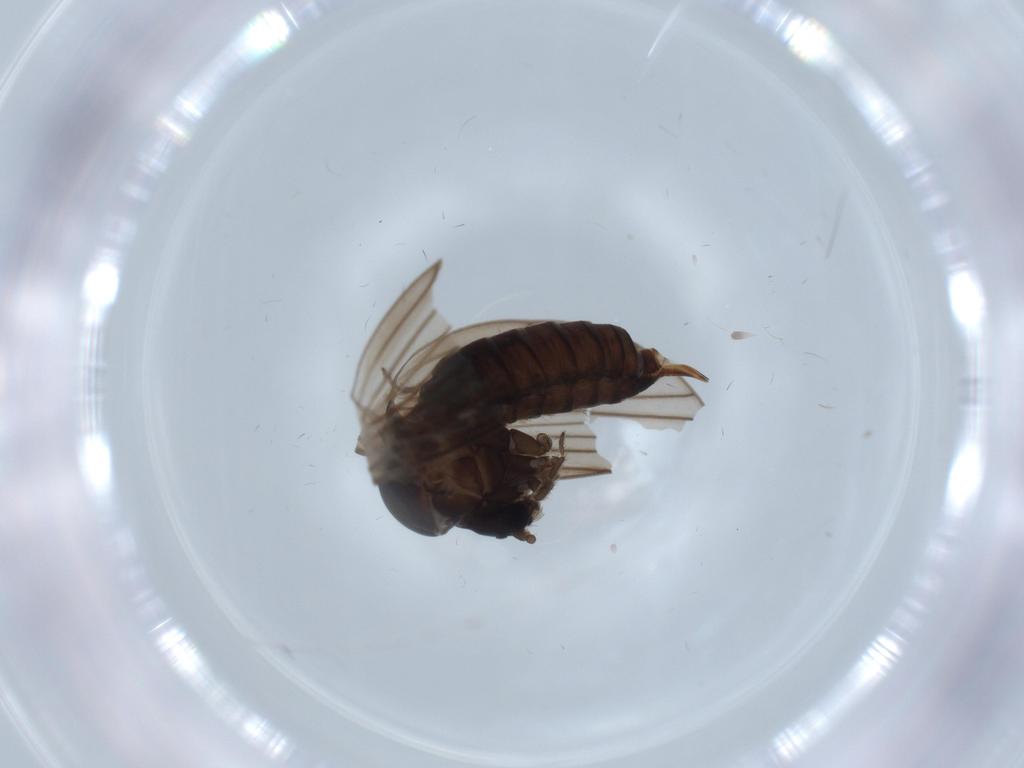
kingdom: Animalia
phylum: Arthropoda
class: Insecta
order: Diptera
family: Psychodidae
